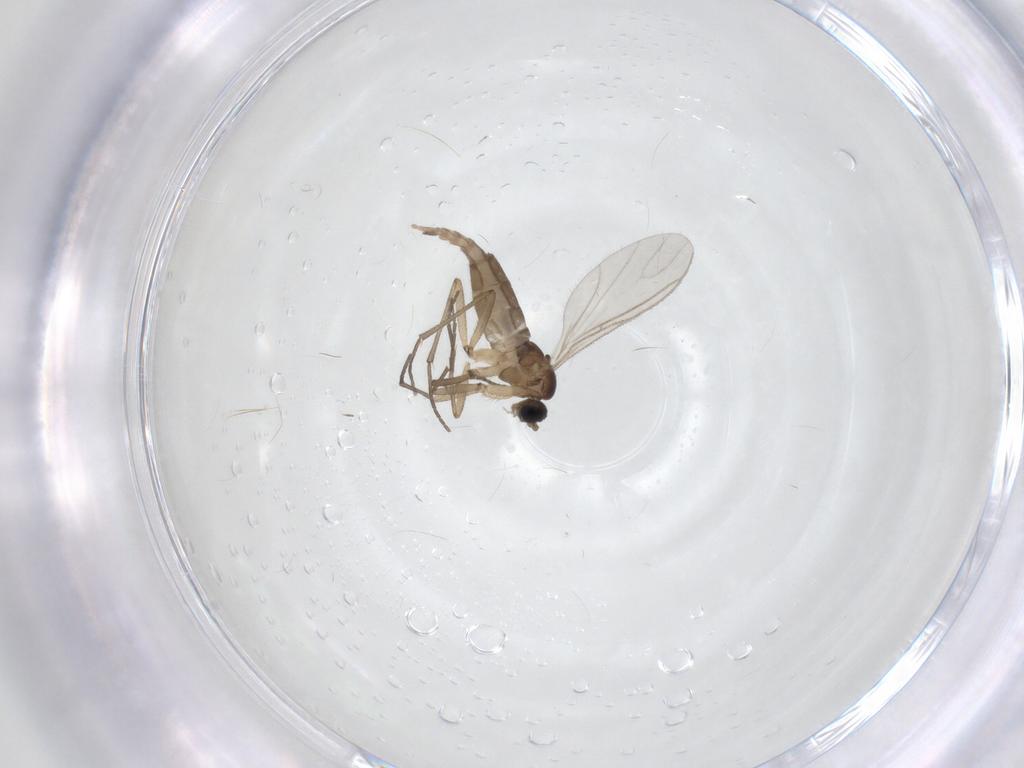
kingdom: Animalia
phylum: Arthropoda
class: Insecta
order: Diptera
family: Sciaridae
